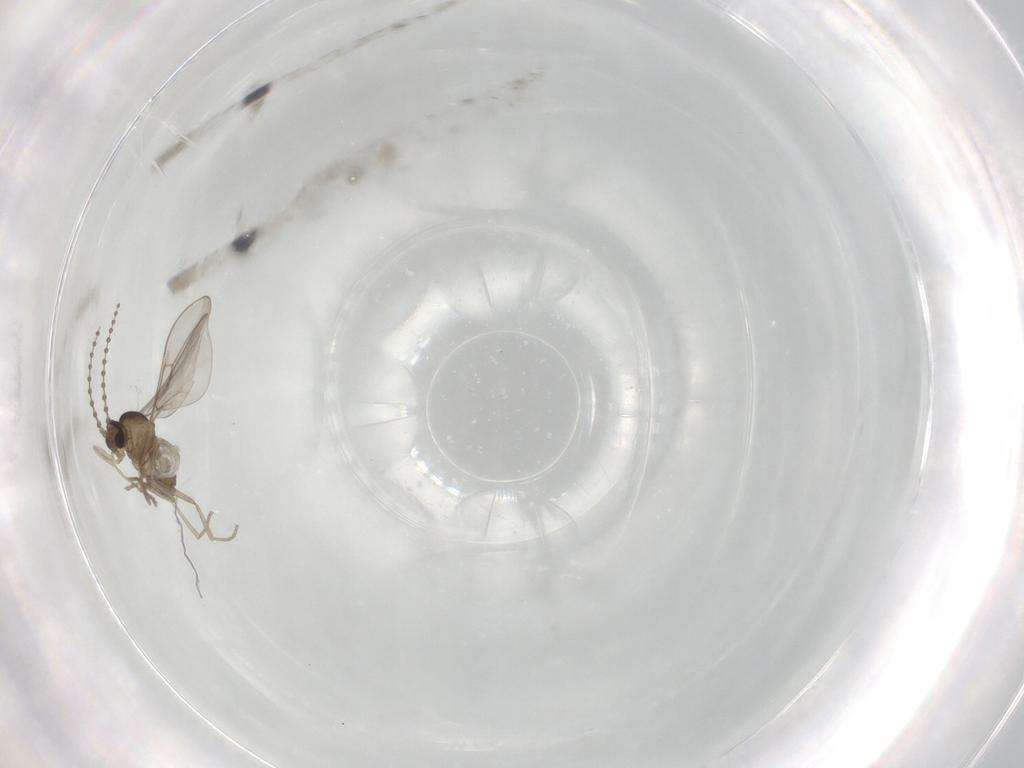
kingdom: Animalia
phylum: Arthropoda
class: Insecta
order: Diptera
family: Cecidomyiidae
